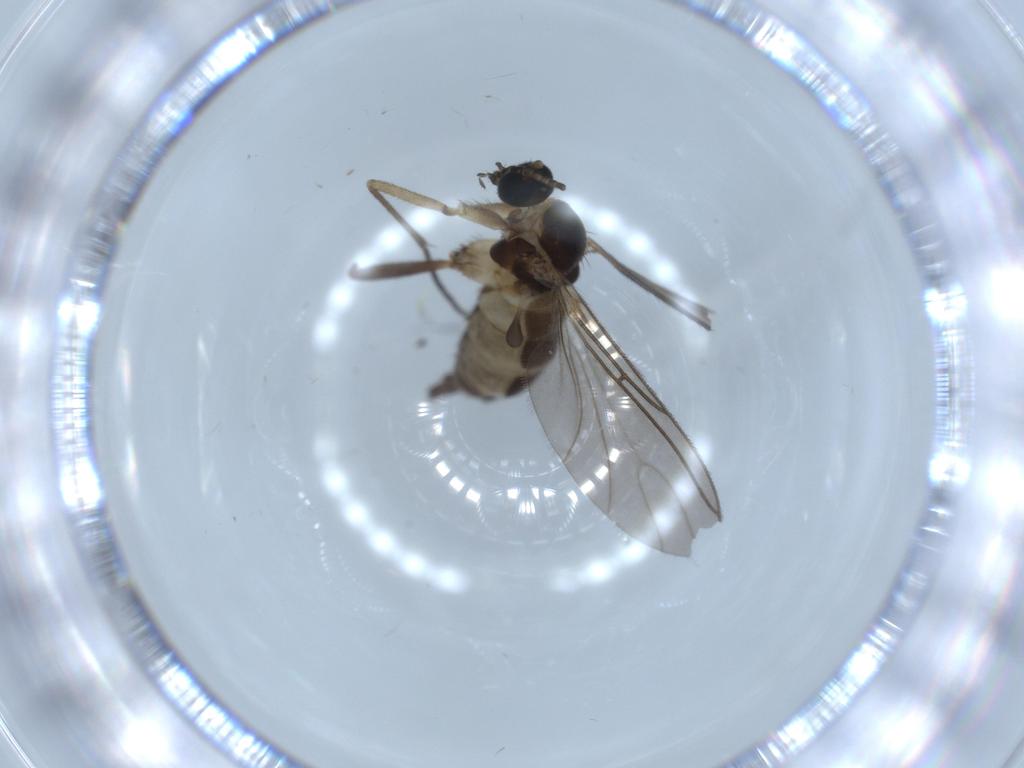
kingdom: Animalia
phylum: Arthropoda
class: Insecta
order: Diptera
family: Sciaridae
